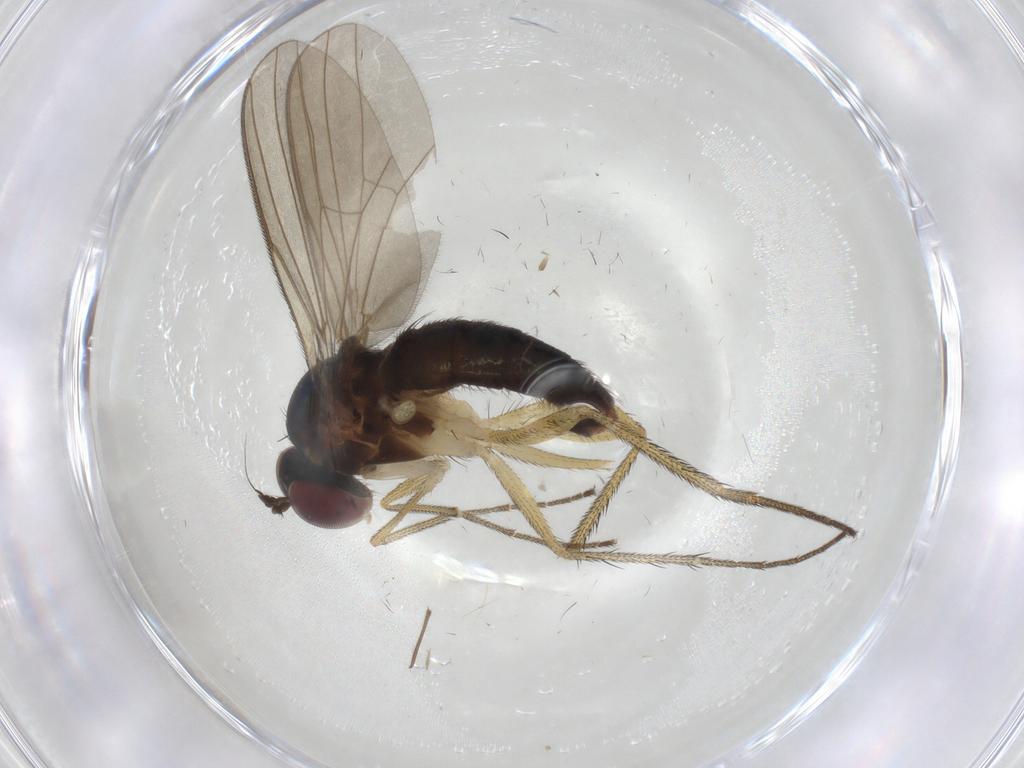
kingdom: Animalia
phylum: Arthropoda
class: Insecta
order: Diptera
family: Dolichopodidae
